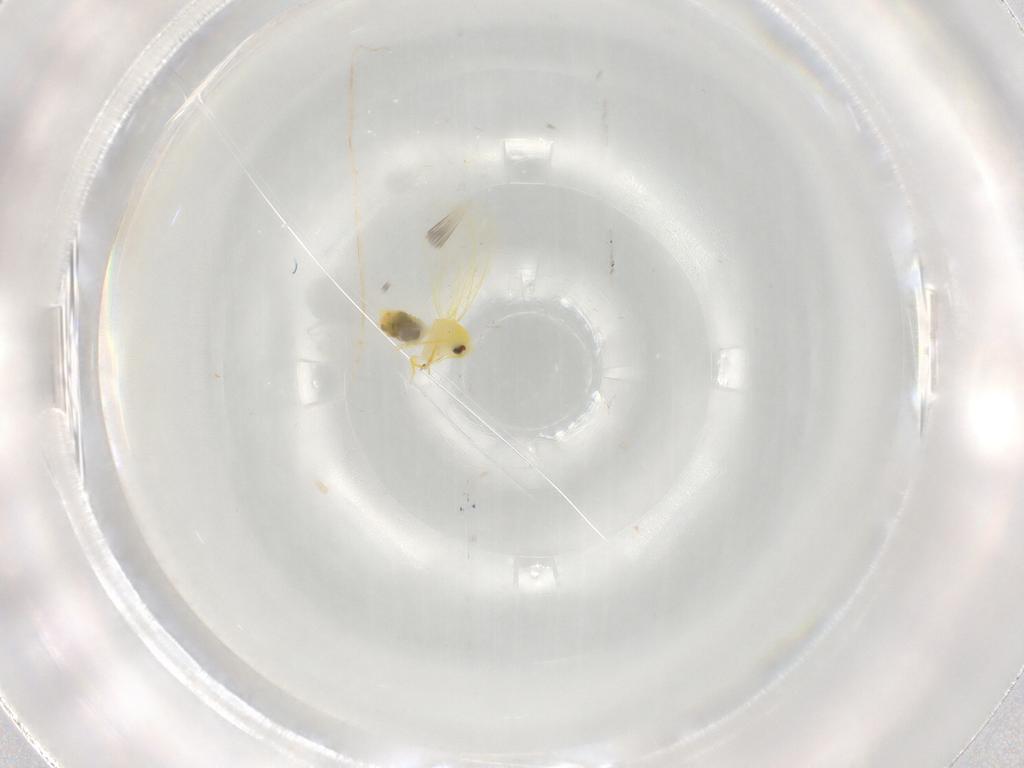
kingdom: Animalia
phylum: Arthropoda
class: Insecta
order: Hemiptera
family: Aleyrodidae
